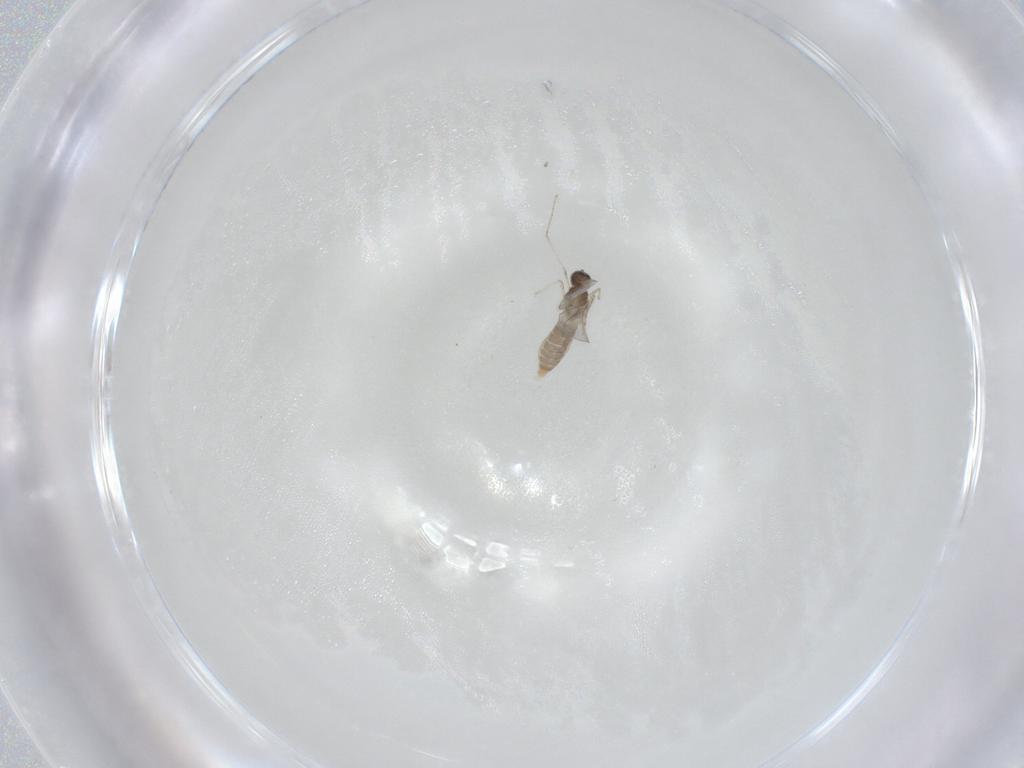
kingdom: Animalia
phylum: Arthropoda
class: Insecta
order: Diptera
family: Cecidomyiidae
